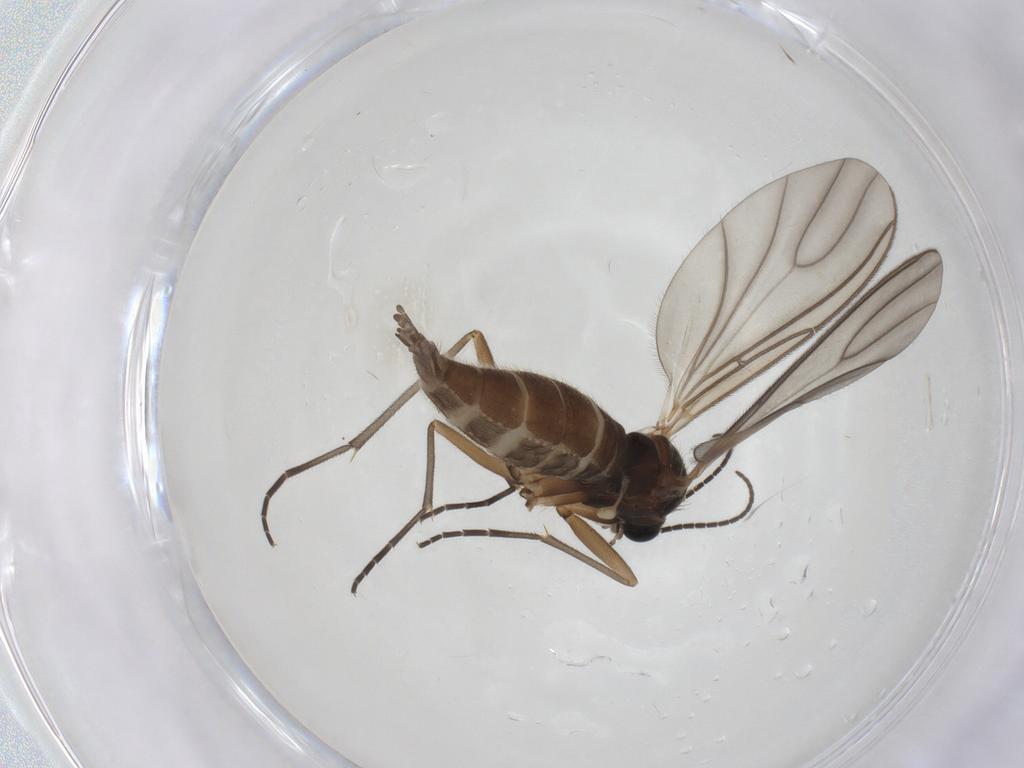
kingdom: Animalia
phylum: Arthropoda
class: Insecta
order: Diptera
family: Sciaridae
